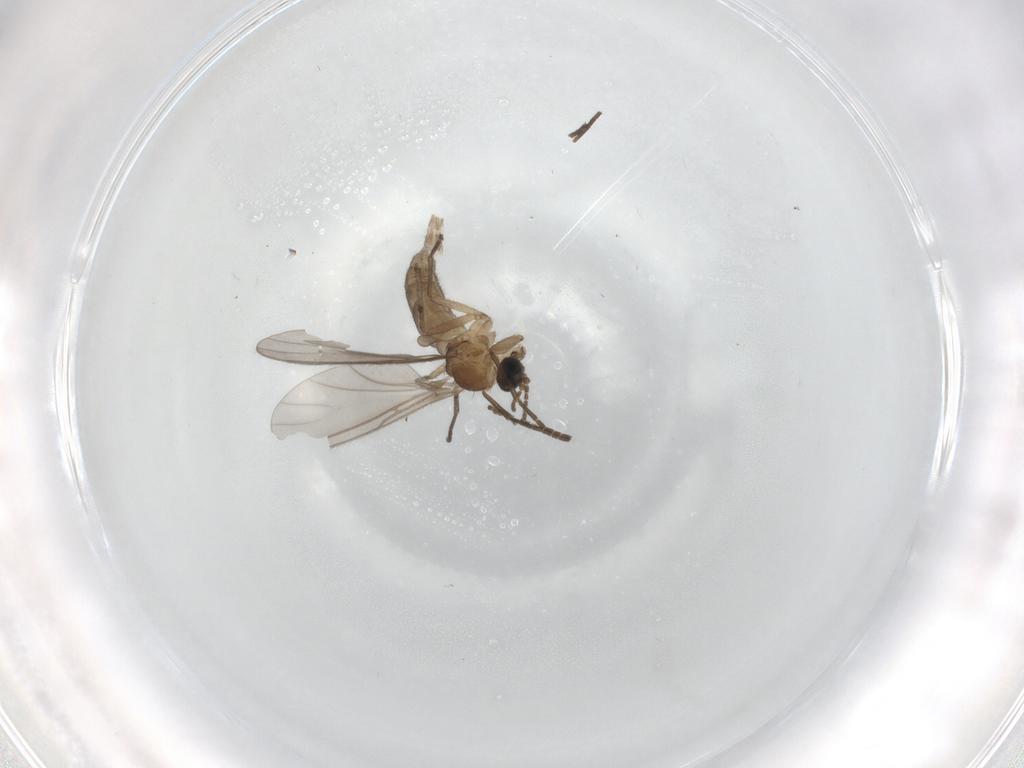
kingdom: Animalia
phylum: Arthropoda
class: Insecta
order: Diptera
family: Sciaridae
